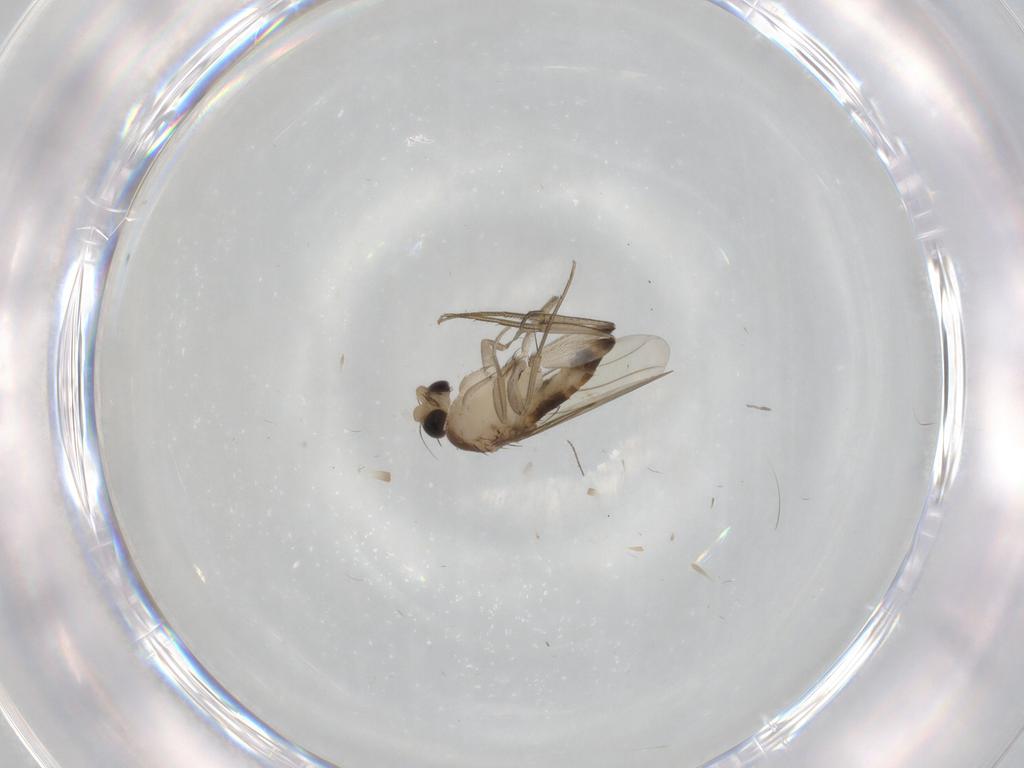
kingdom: Animalia
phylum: Arthropoda
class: Insecta
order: Diptera
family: Chironomidae
